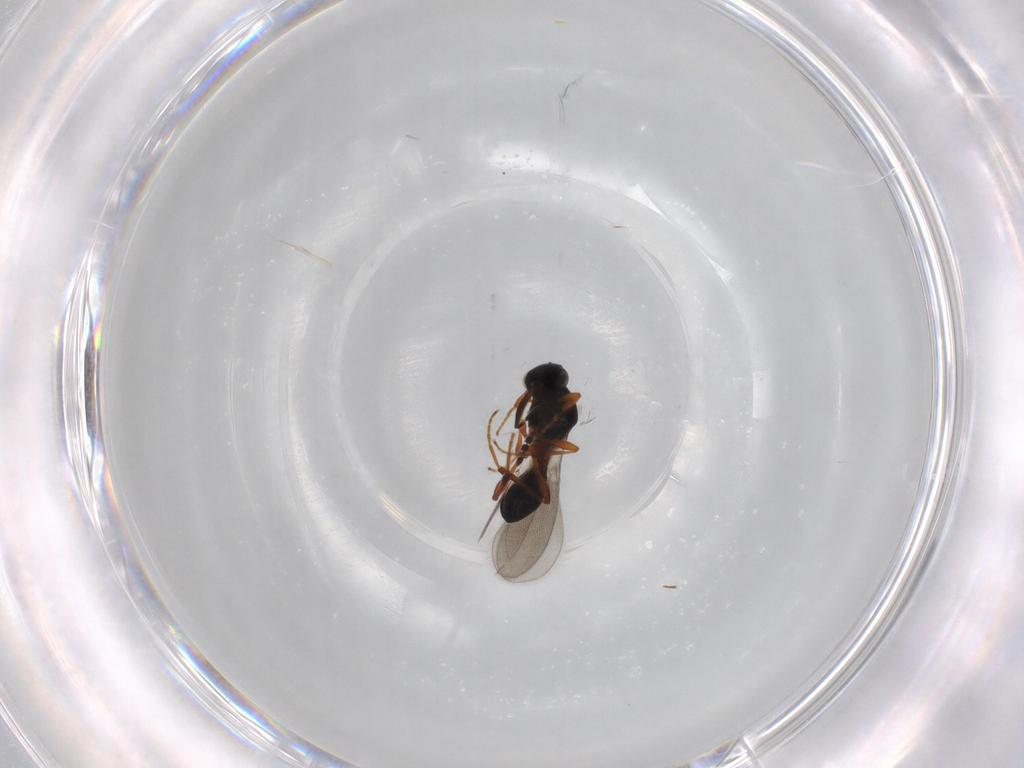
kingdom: Animalia
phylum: Arthropoda
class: Insecta
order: Hymenoptera
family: Platygastridae
